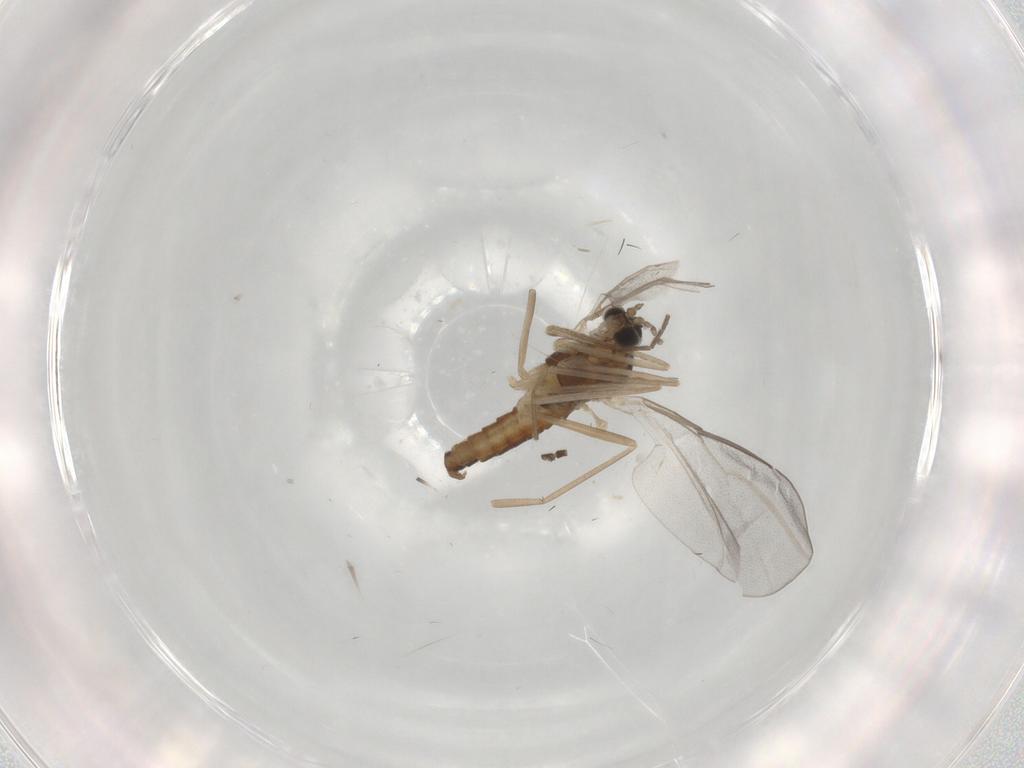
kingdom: Animalia
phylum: Arthropoda
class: Insecta
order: Diptera
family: Cecidomyiidae
